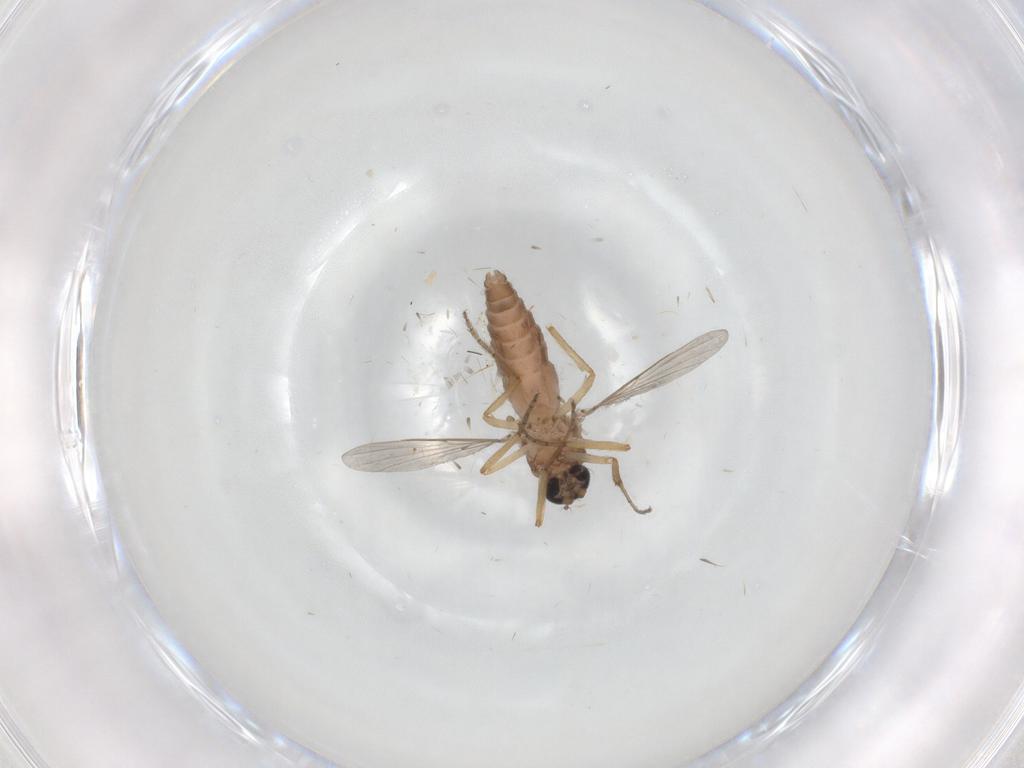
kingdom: Animalia
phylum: Arthropoda
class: Insecta
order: Diptera
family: Ceratopogonidae
